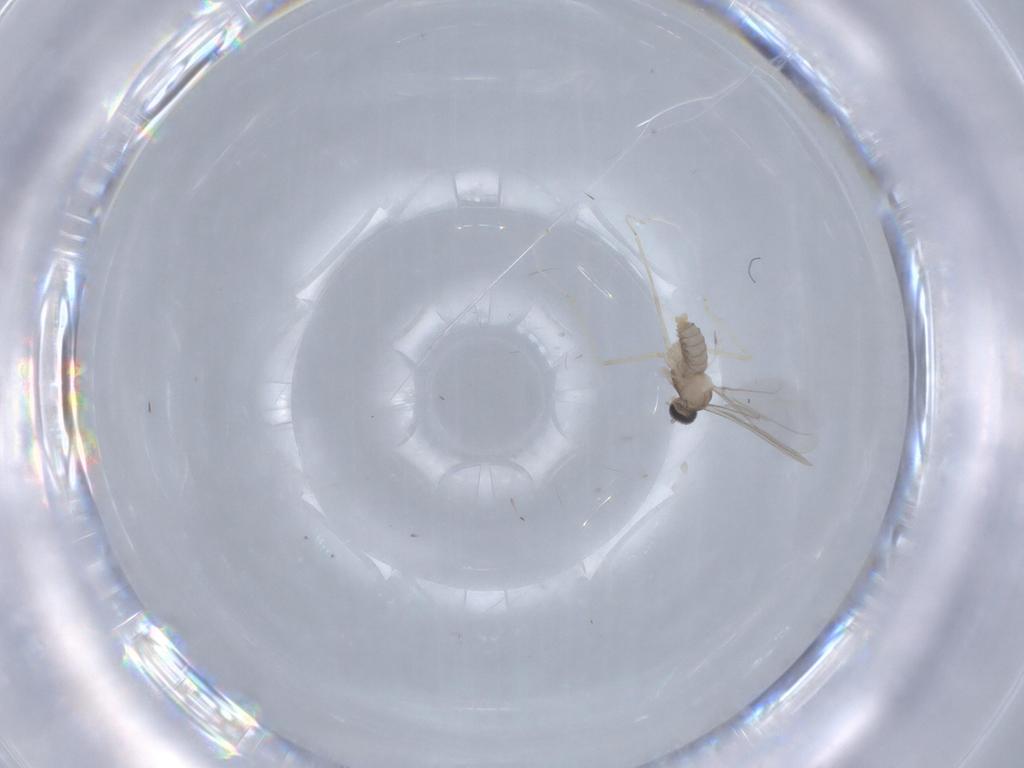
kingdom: Animalia
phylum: Arthropoda
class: Insecta
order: Diptera
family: Cecidomyiidae
